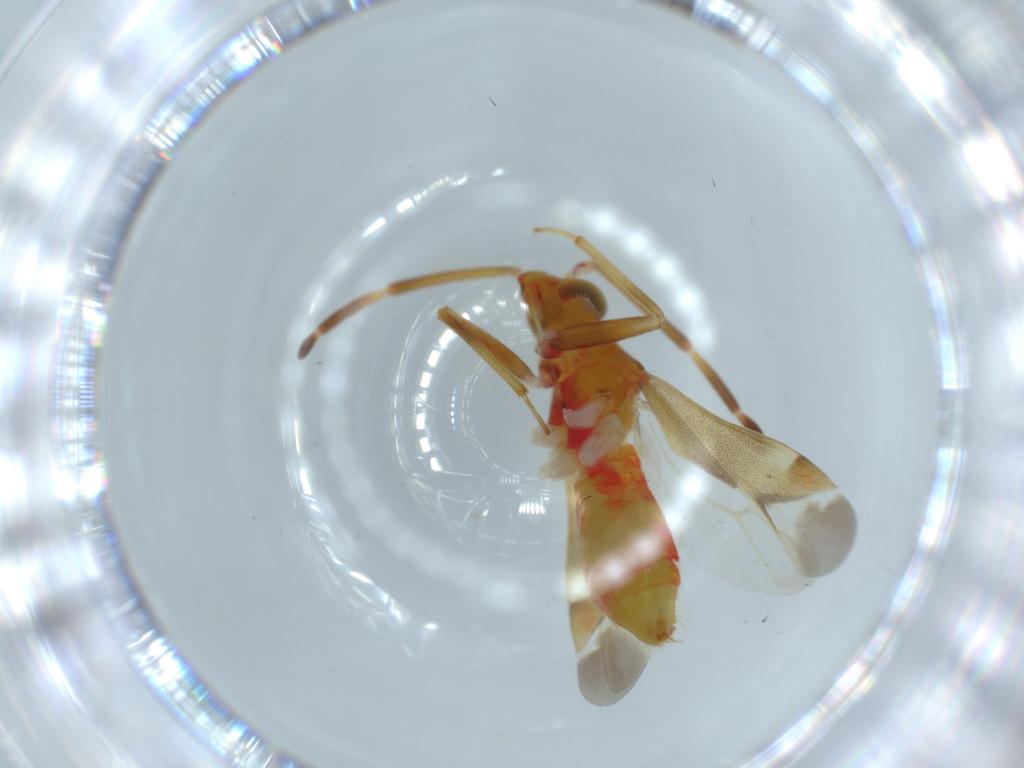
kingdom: Animalia
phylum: Arthropoda
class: Insecta
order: Hemiptera
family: Miridae
